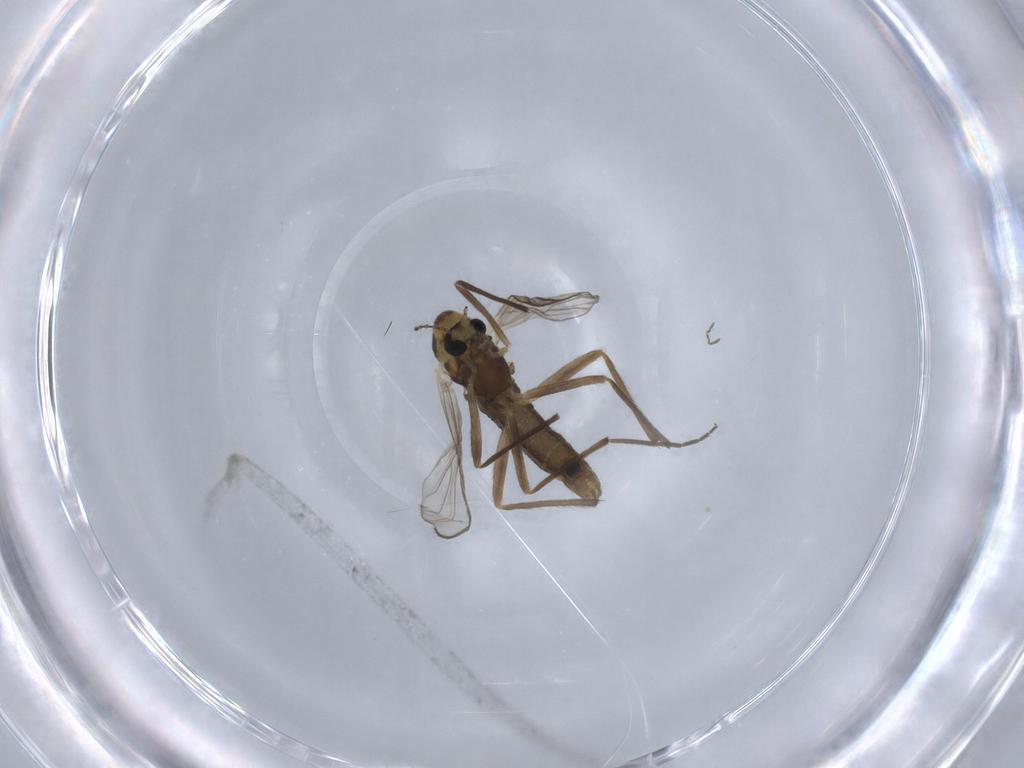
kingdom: Animalia
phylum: Arthropoda
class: Insecta
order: Diptera
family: Chironomidae
